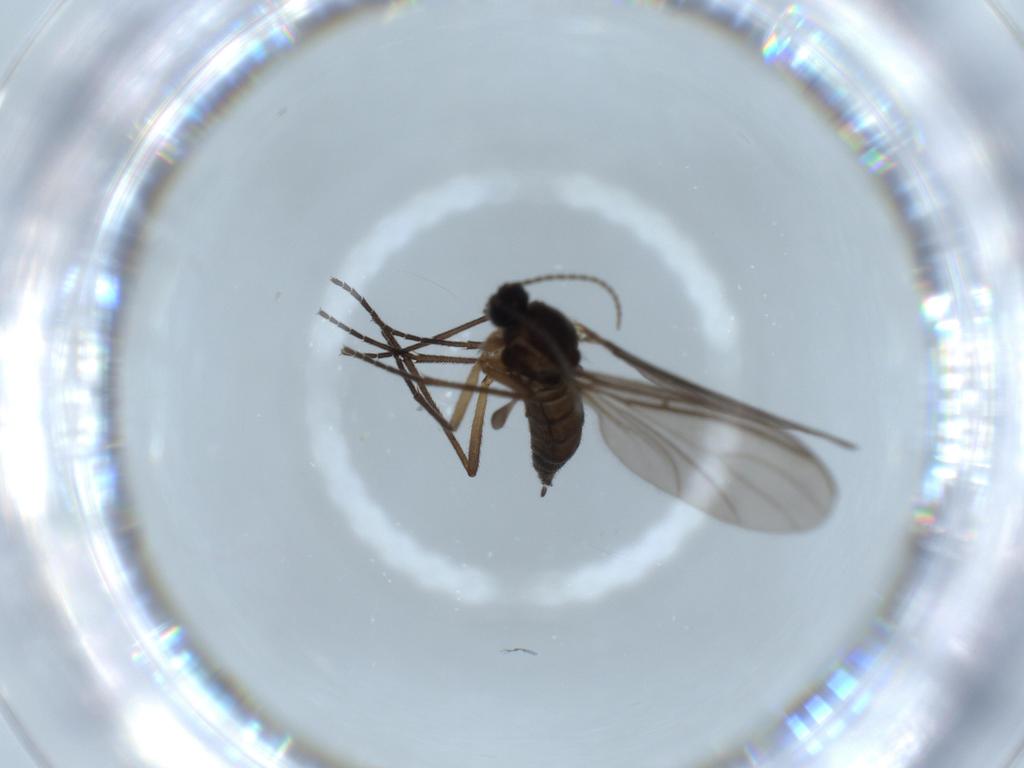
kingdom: Animalia
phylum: Arthropoda
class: Insecta
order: Diptera
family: Sciaridae
